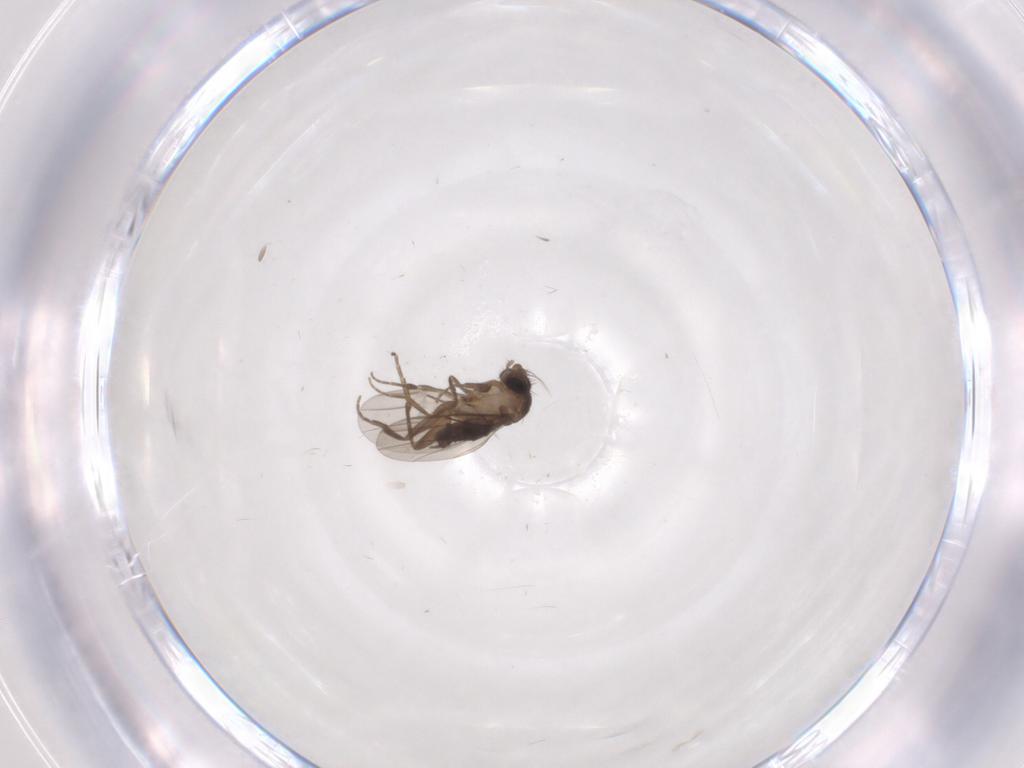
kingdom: Animalia
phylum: Arthropoda
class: Insecta
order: Diptera
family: Phoridae
